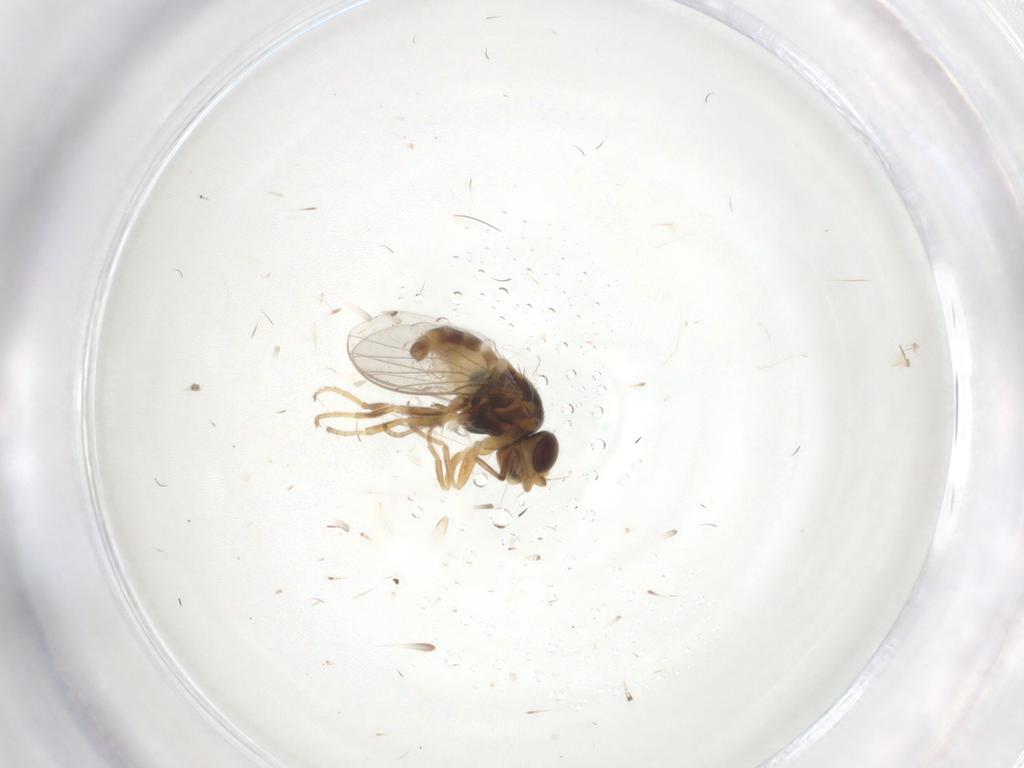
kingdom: Animalia
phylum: Arthropoda
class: Insecta
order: Diptera
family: Chloropidae
